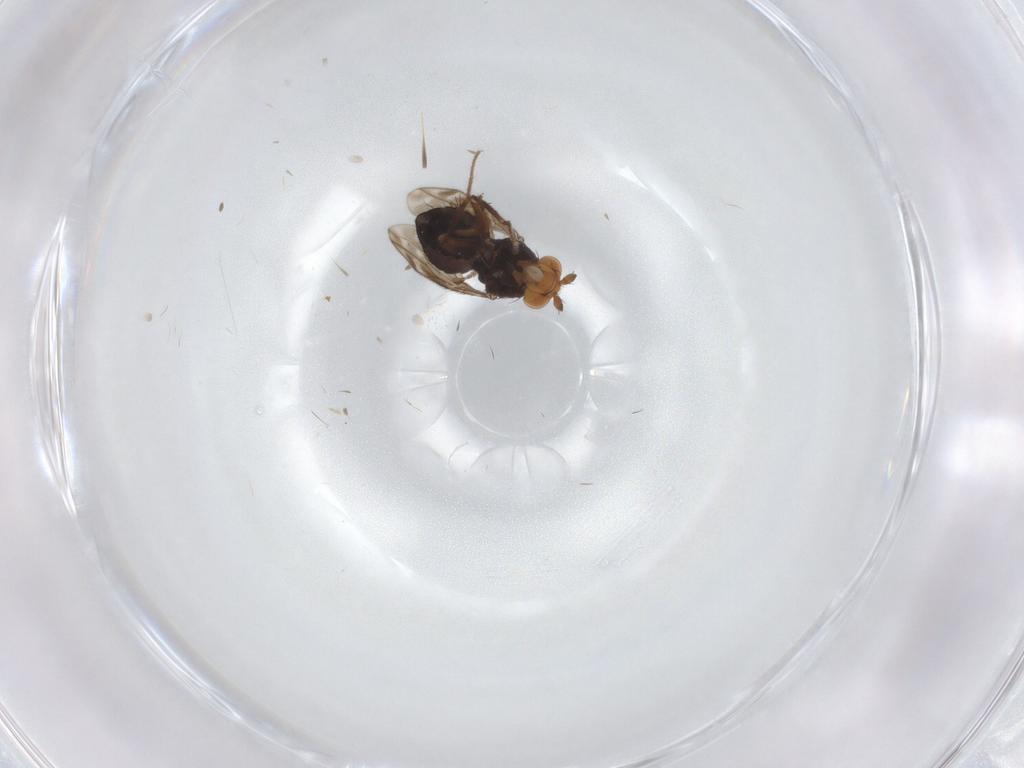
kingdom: Animalia
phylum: Arthropoda
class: Insecta
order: Diptera
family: Sphaeroceridae
